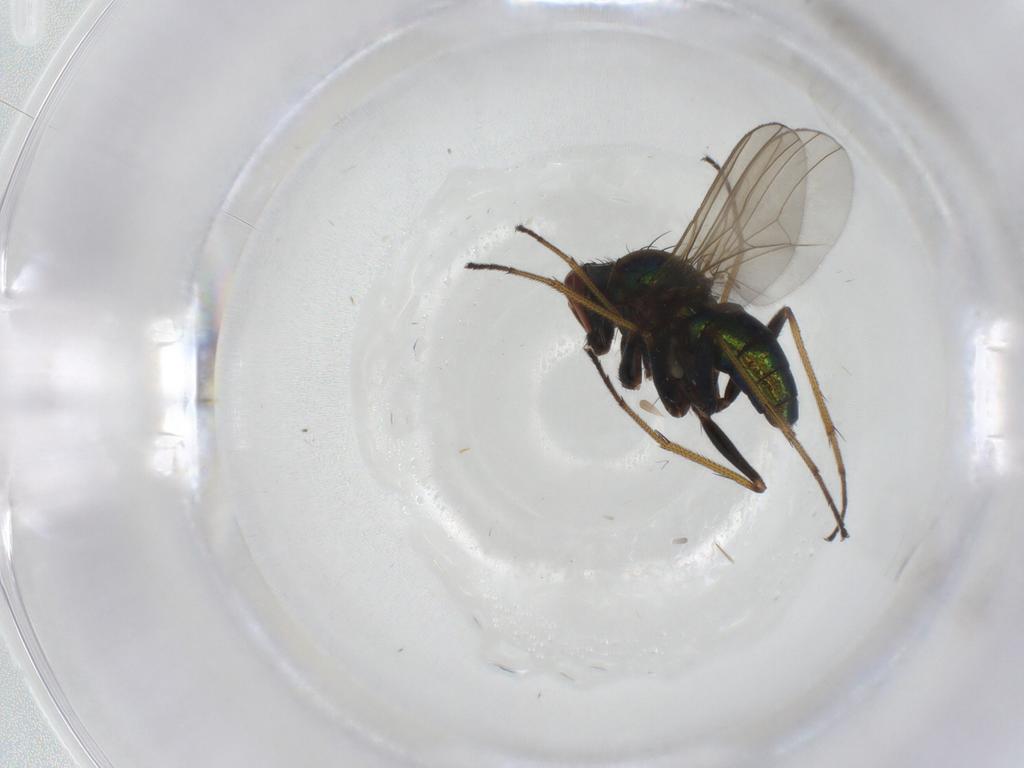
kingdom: Animalia
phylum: Arthropoda
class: Insecta
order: Diptera
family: Dolichopodidae
